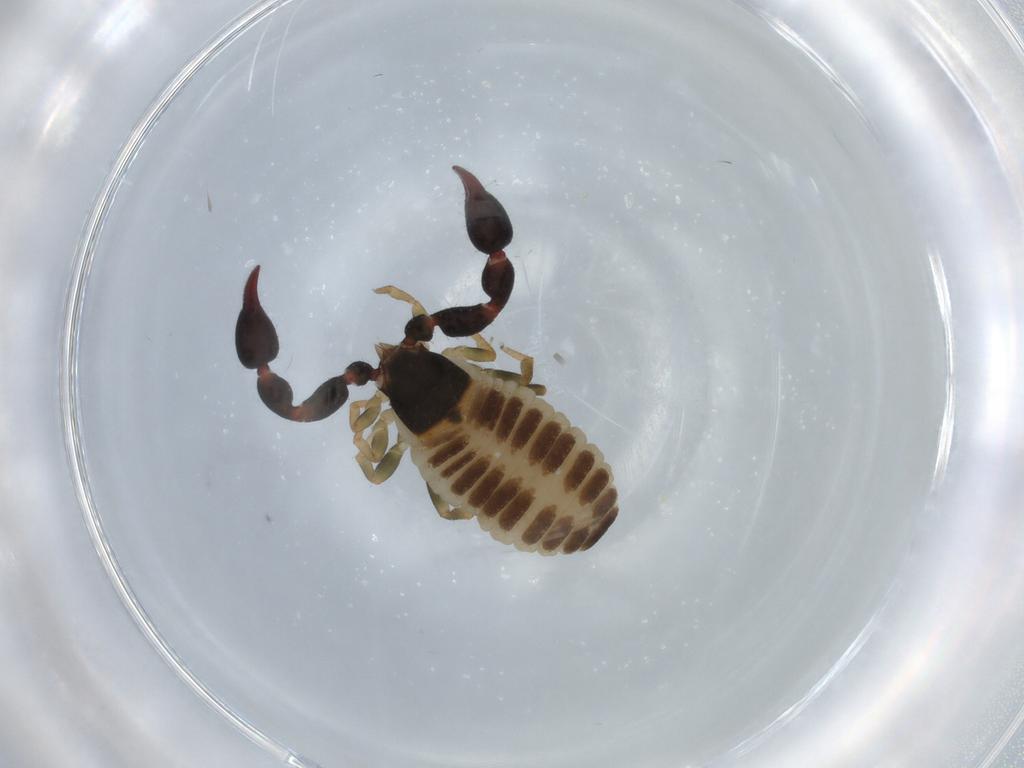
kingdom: Animalia
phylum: Arthropoda
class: Arachnida
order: Pseudoscorpiones
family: Chernetidae
